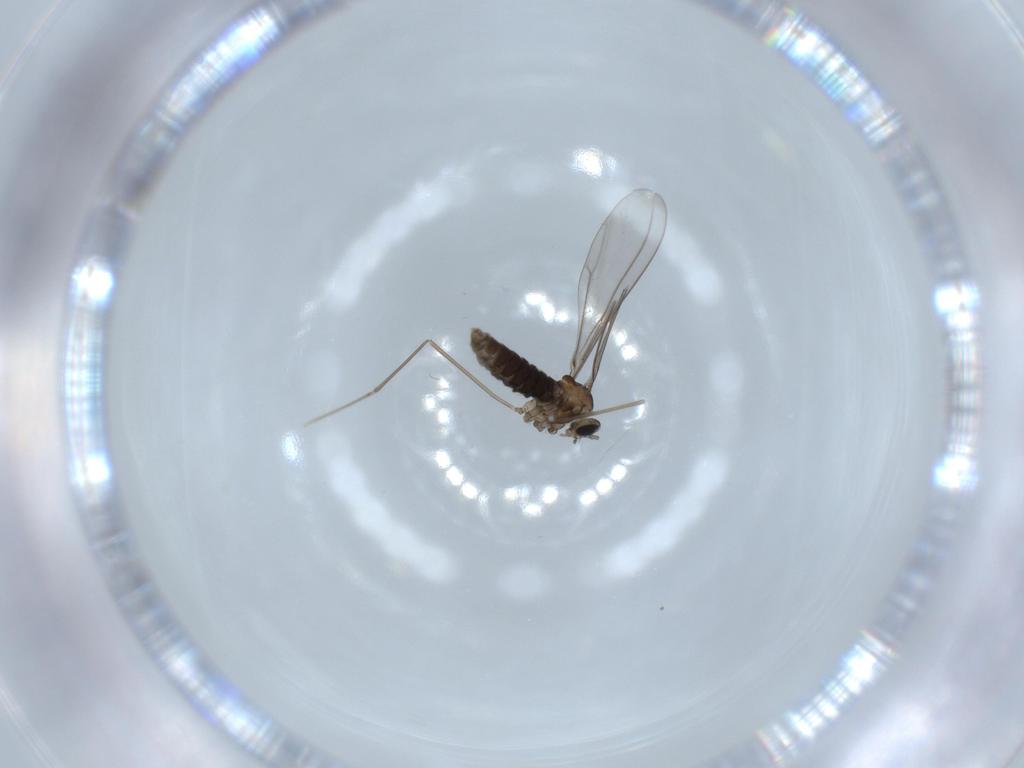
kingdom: Animalia
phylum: Arthropoda
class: Insecta
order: Diptera
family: Cecidomyiidae
